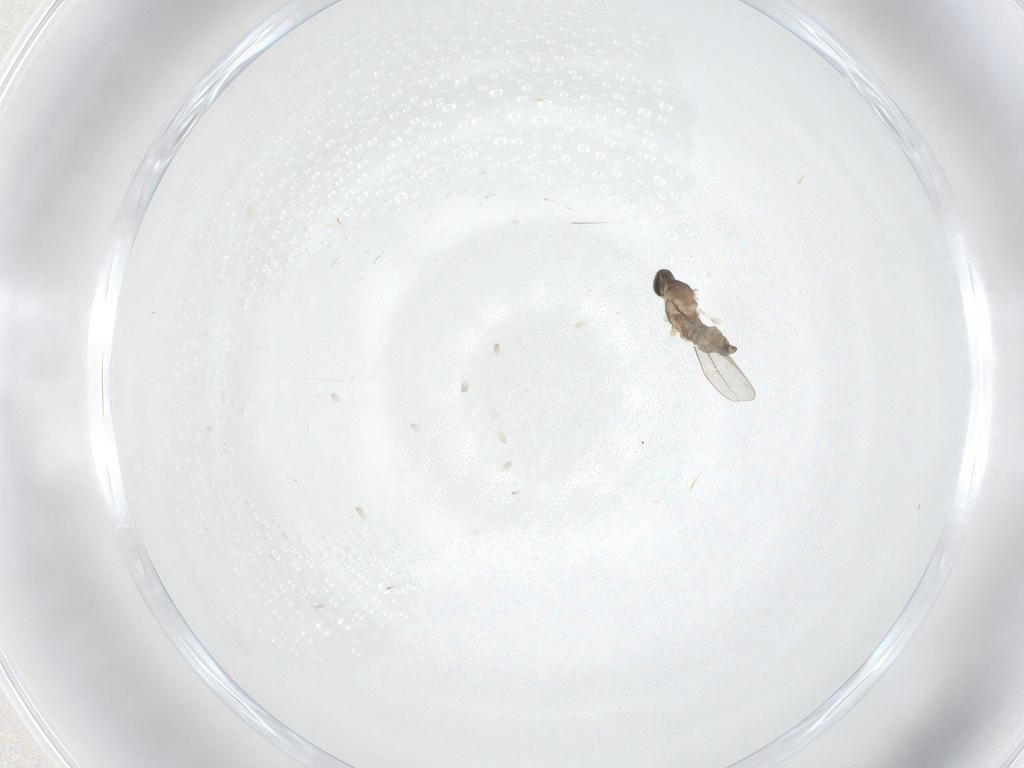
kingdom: Animalia
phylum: Arthropoda
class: Insecta
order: Diptera
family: Cecidomyiidae
